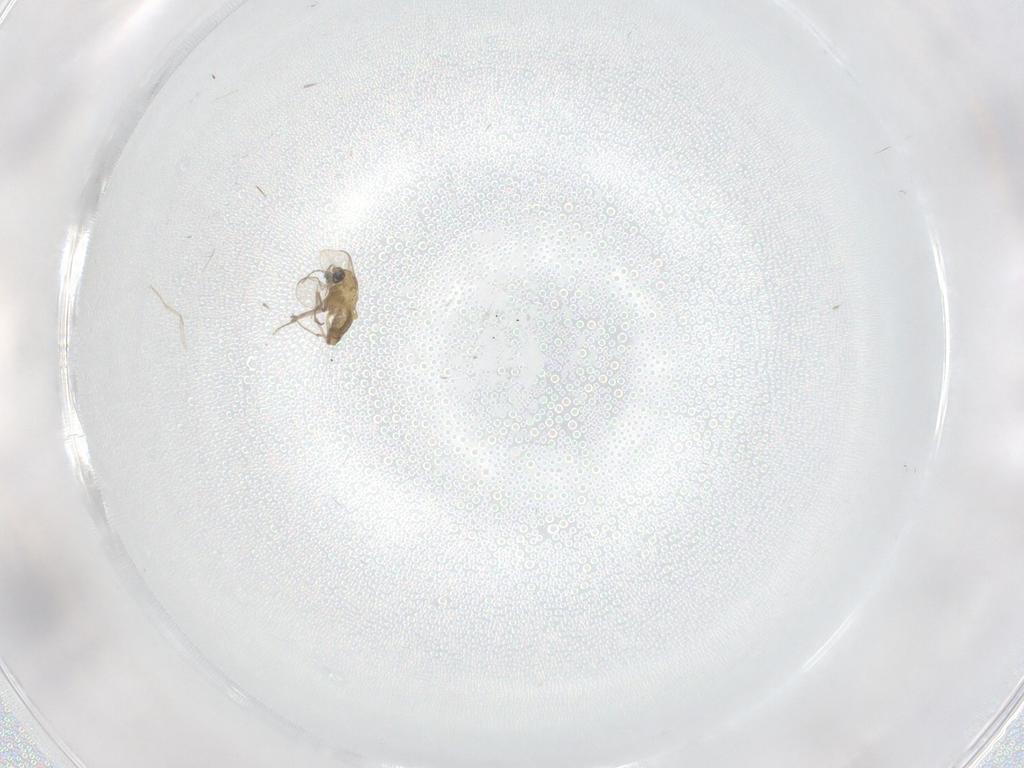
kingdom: Animalia
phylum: Arthropoda
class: Insecta
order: Diptera
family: Chironomidae
